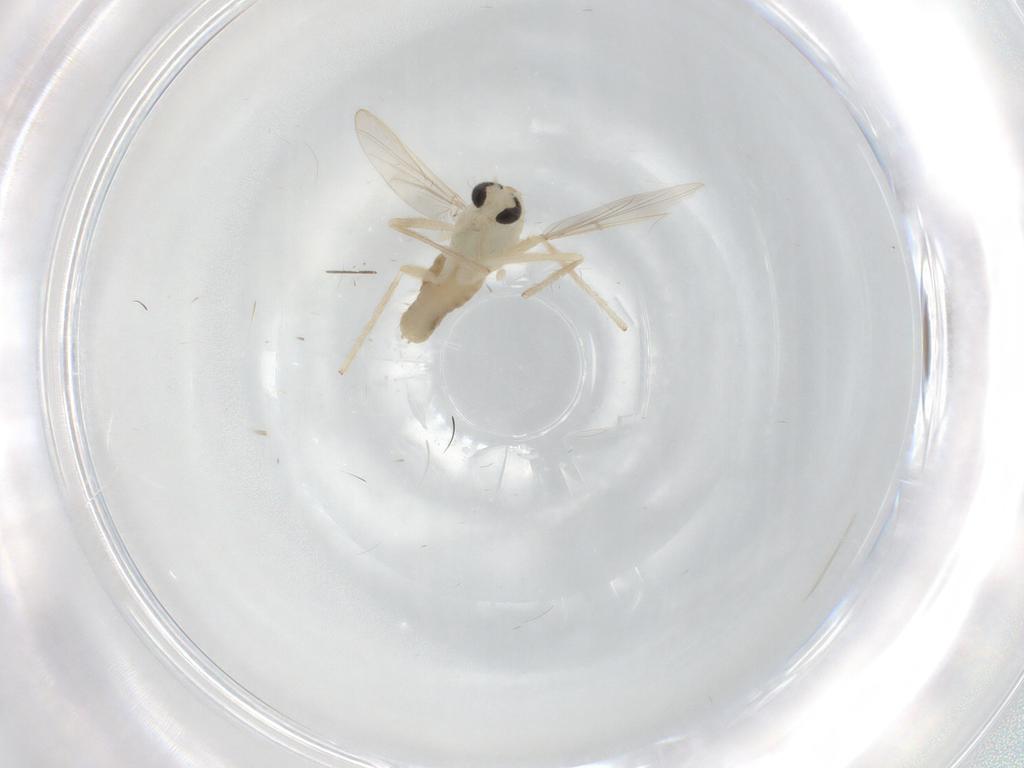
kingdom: Animalia
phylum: Arthropoda
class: Insecta
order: Diptera
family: Chironomidae
